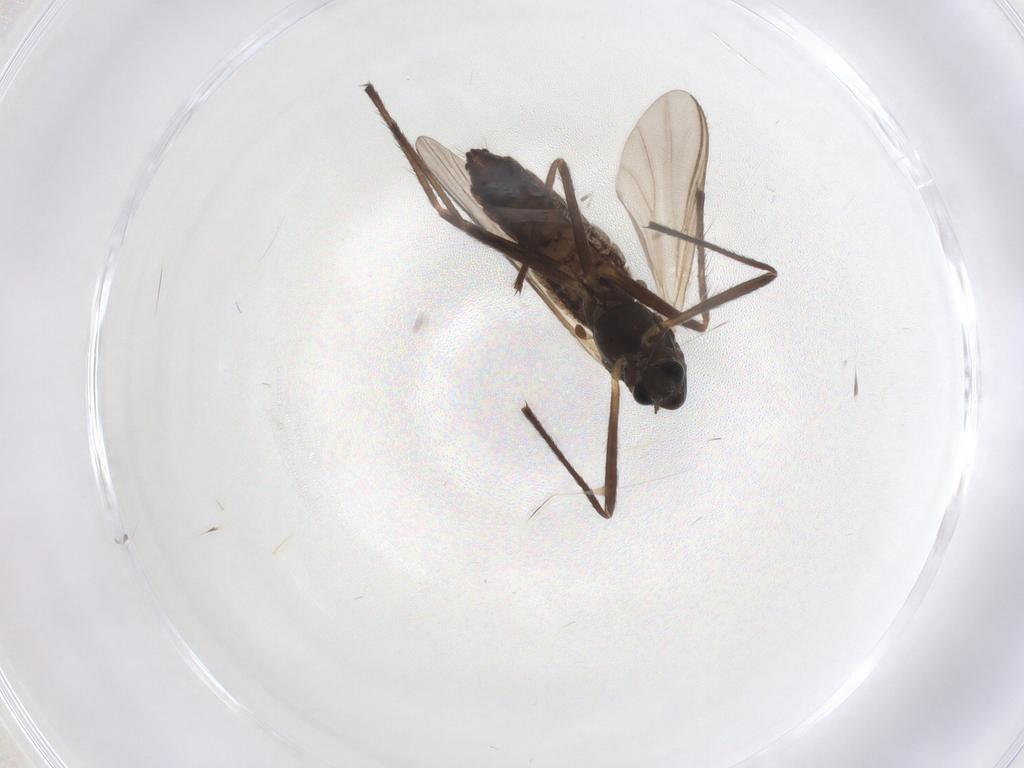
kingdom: Animalia
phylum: Arthropoda
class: Insecta
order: Diptera
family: Chironomidae
